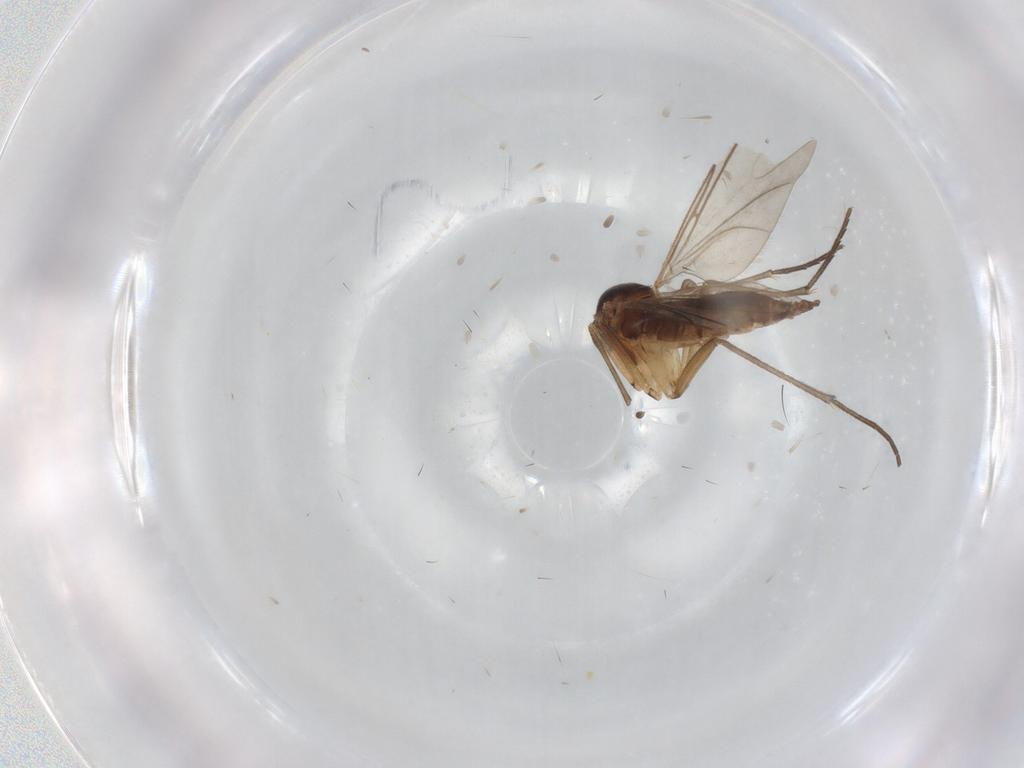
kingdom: Animalia
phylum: Arthropoda
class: Insecta
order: Diptera
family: Sciaridae
